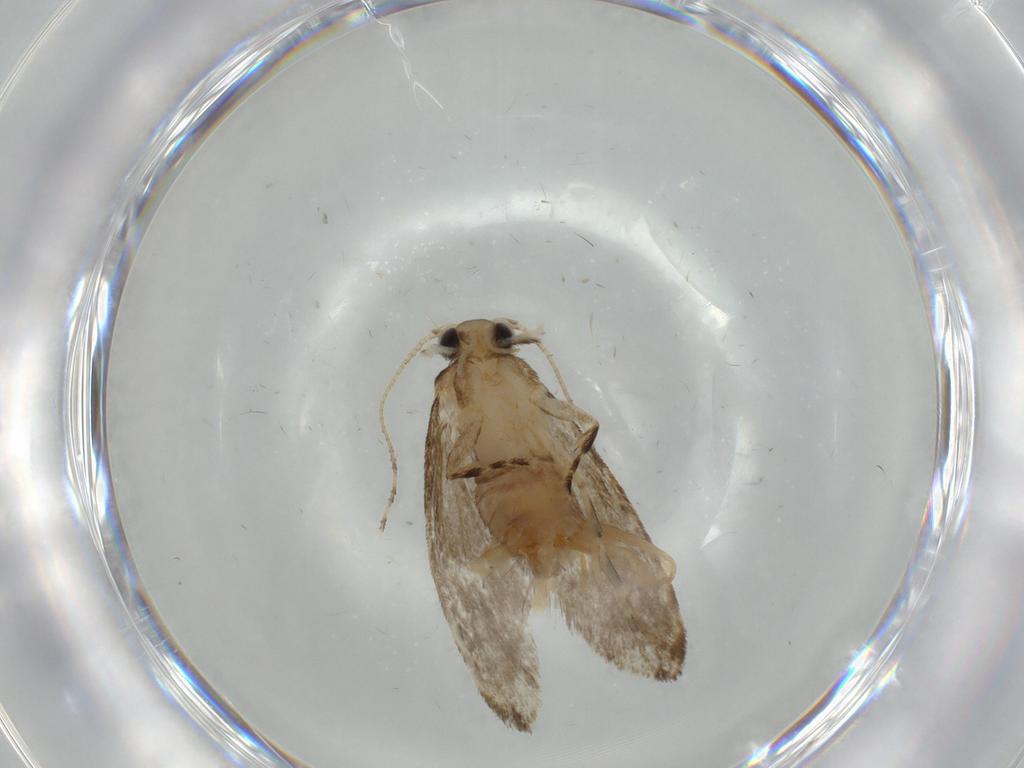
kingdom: Animalia
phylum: Arthropoda
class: Insecta
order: Lepidoptera
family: Tineidae
